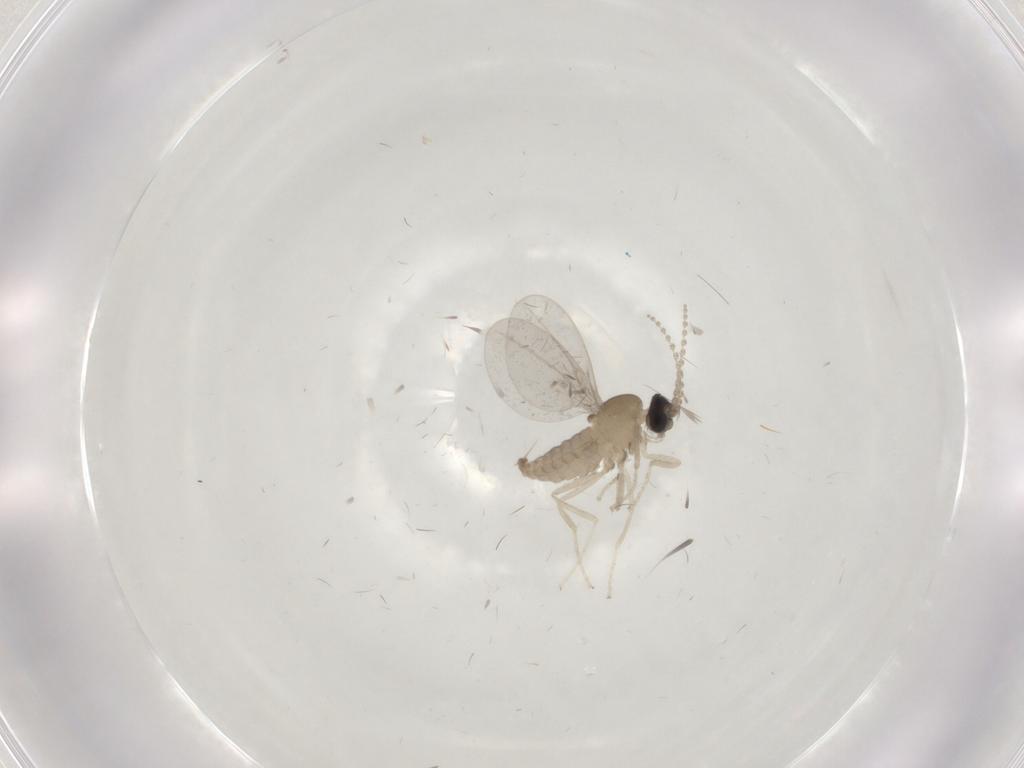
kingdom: Animalia
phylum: Arthropoda
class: Insecta
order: Diptera
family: Cecidomyiidae
